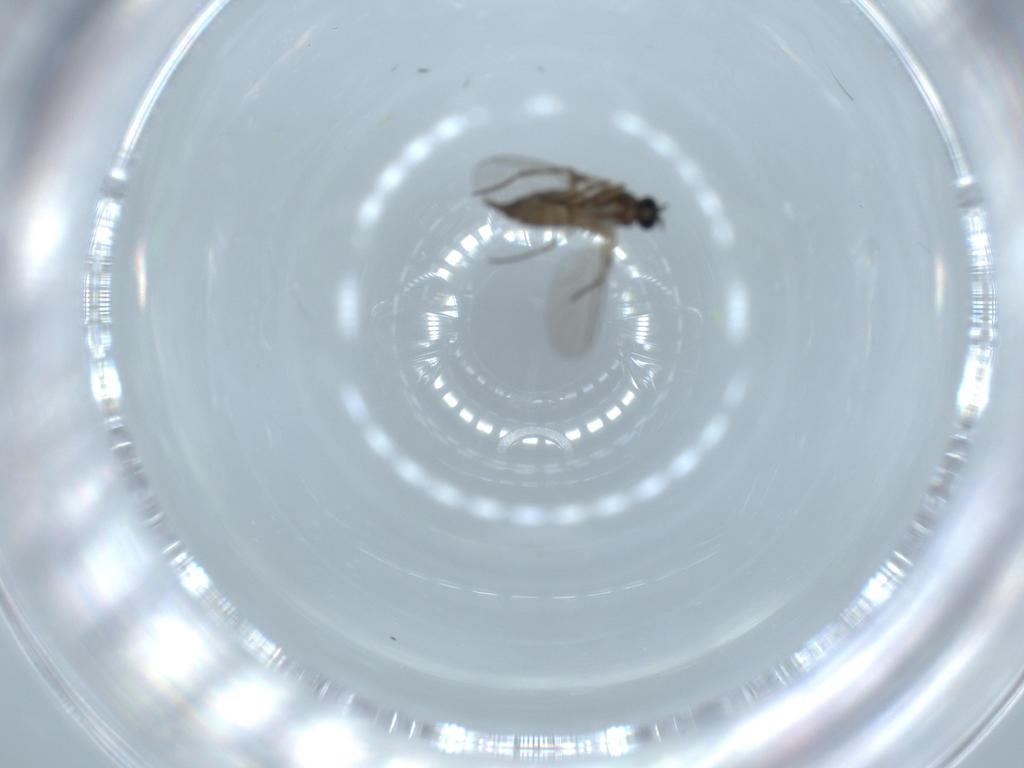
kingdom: Animalia
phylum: Arthropoda
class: Insecta
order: Diptera
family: Sciaridae
